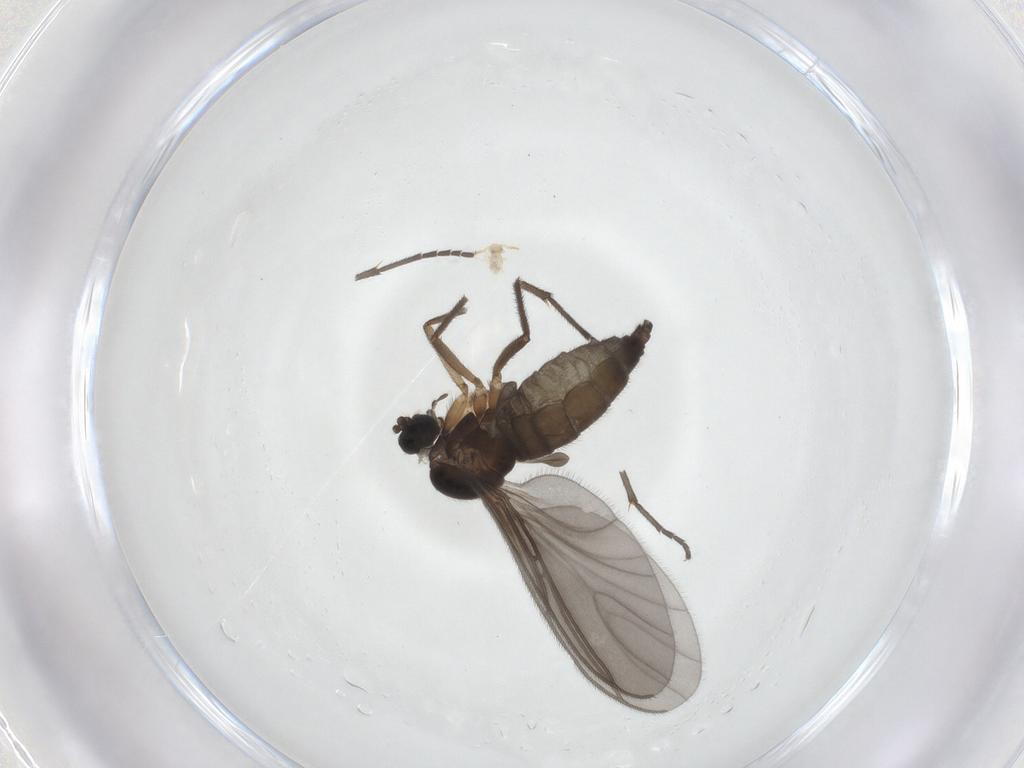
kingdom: Animalia
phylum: Arthropoda
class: Insecta
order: Diptera
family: Sciaridae
